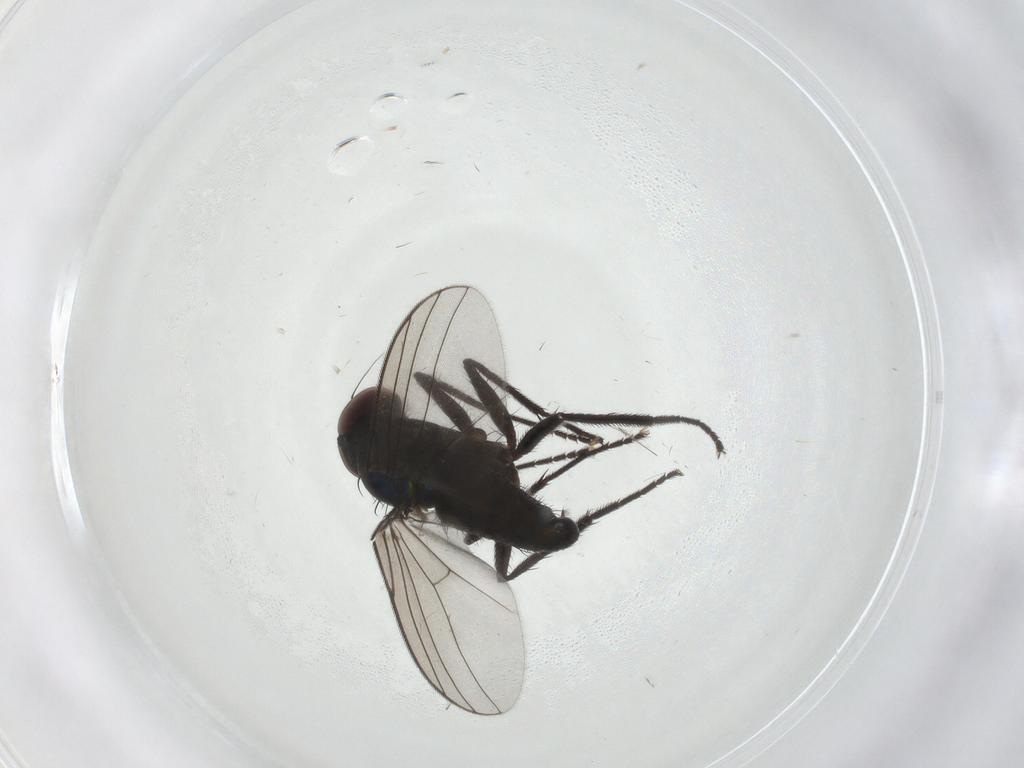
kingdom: Animalia
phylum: Arthropoda
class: Insecta
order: Diptera
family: Dolichopodidae
